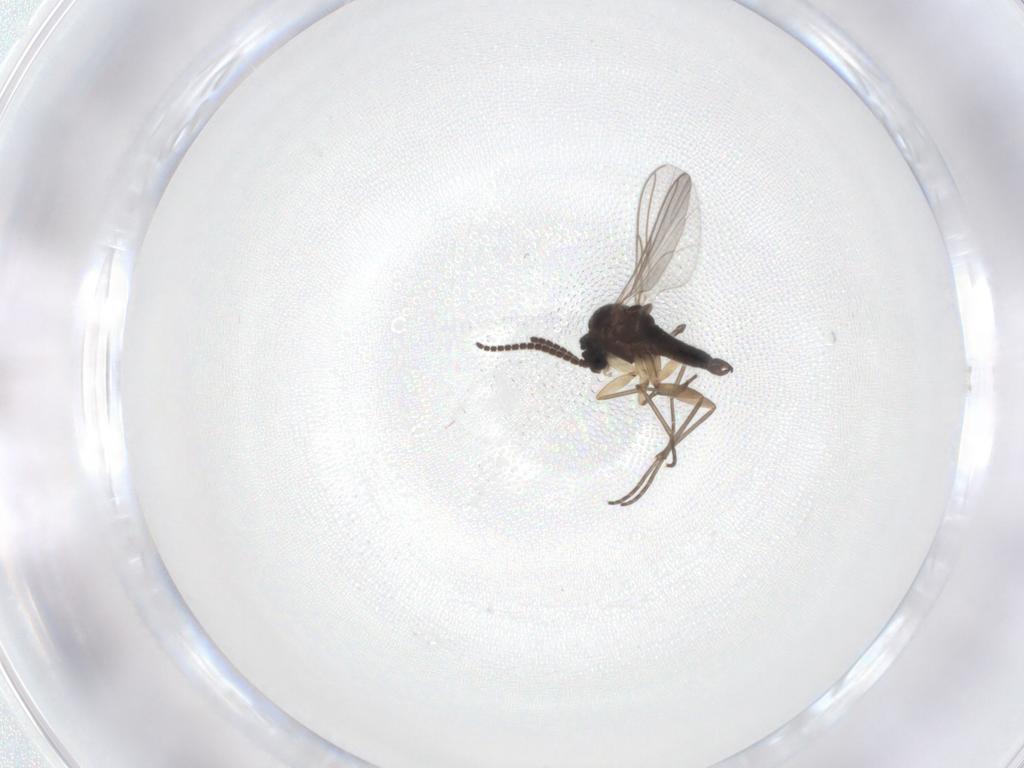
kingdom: Animalia
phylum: Arthropoda
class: Insecta
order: Diptera
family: Sciaridae
